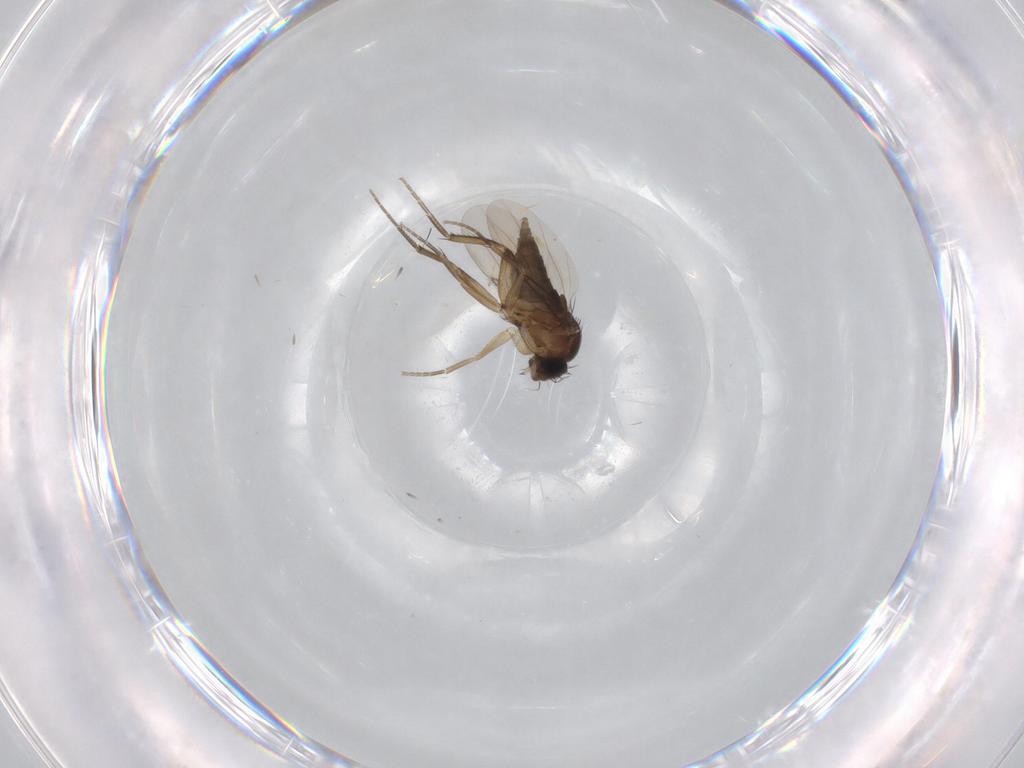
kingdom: Animalia
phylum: Arthropoda
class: Insecta
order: Diptera
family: Phoridae
